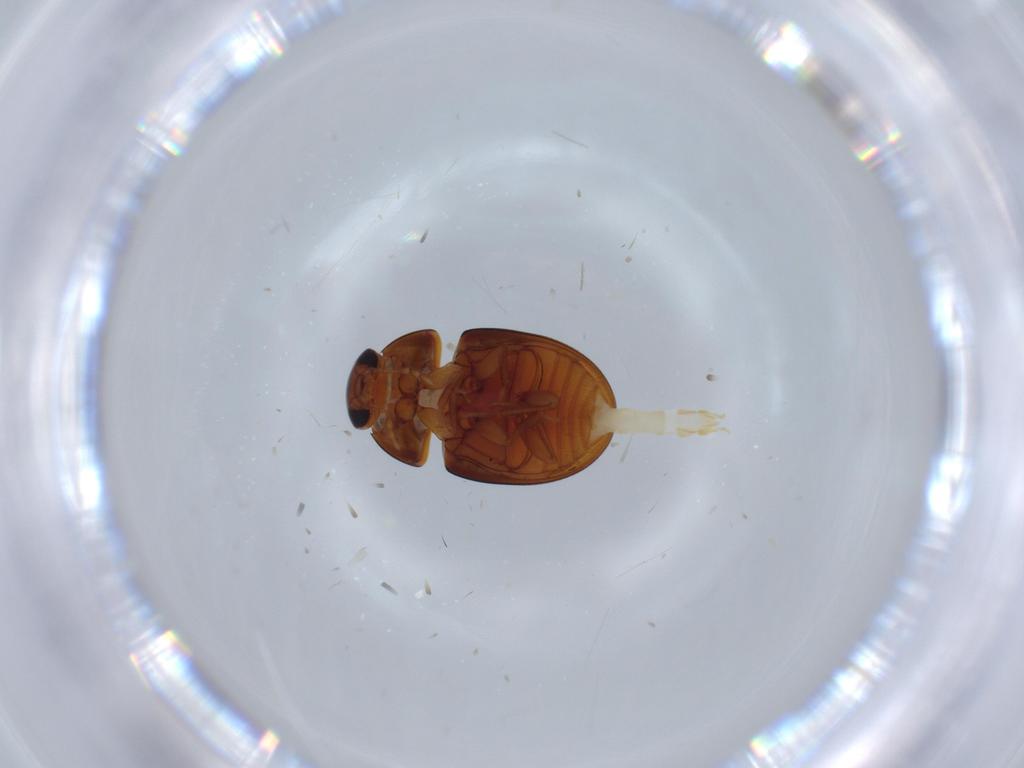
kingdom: Animalia
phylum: Arthropoda
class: Insecta
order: Coleoptera
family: Phalacridae
